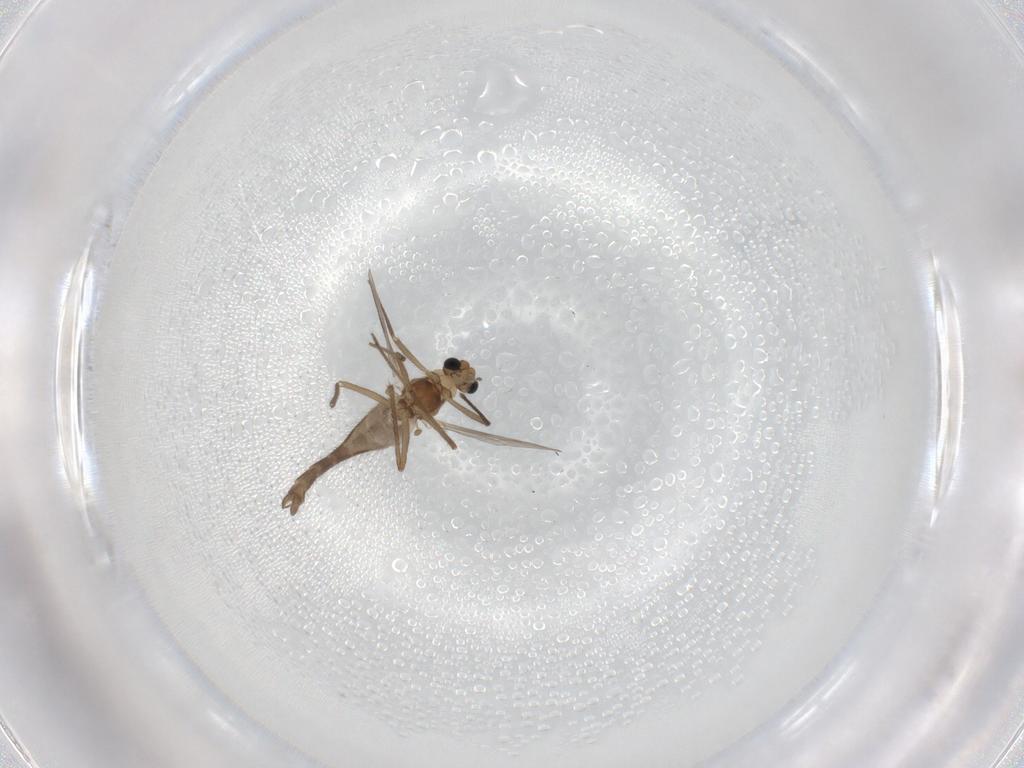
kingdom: Animalia
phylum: Arthropoda
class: Insecta
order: Diptera
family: Chironomidae
